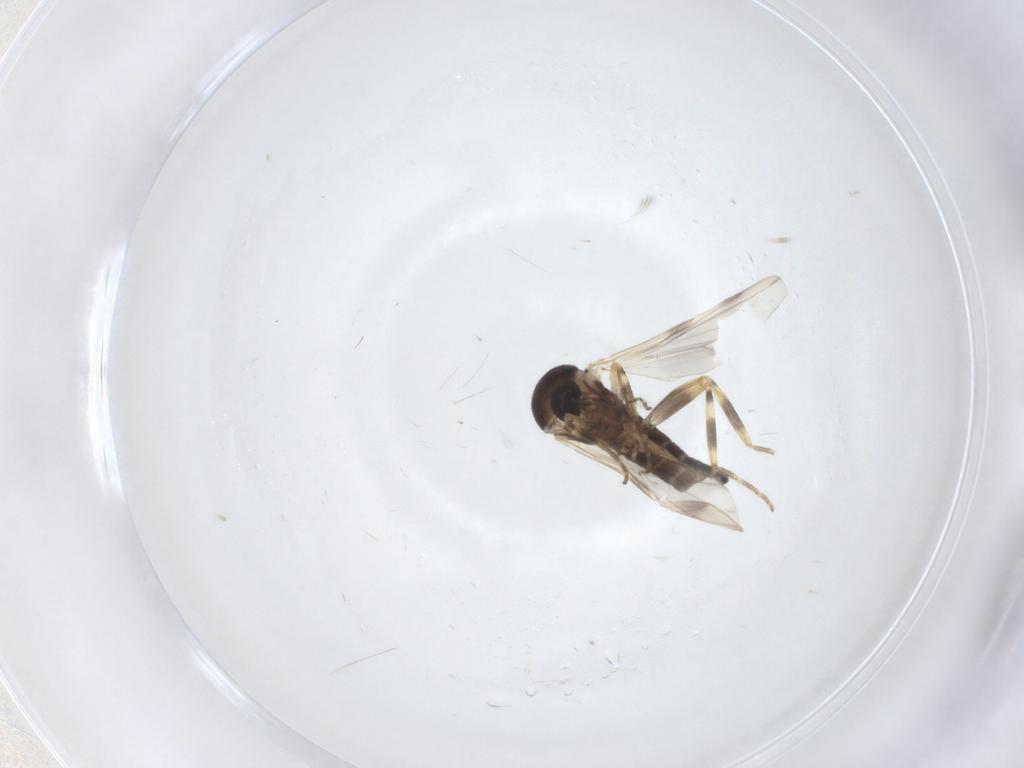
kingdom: Animalia
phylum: Arthropoda
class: Insecta
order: Diptera
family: Ceratopogonidae
